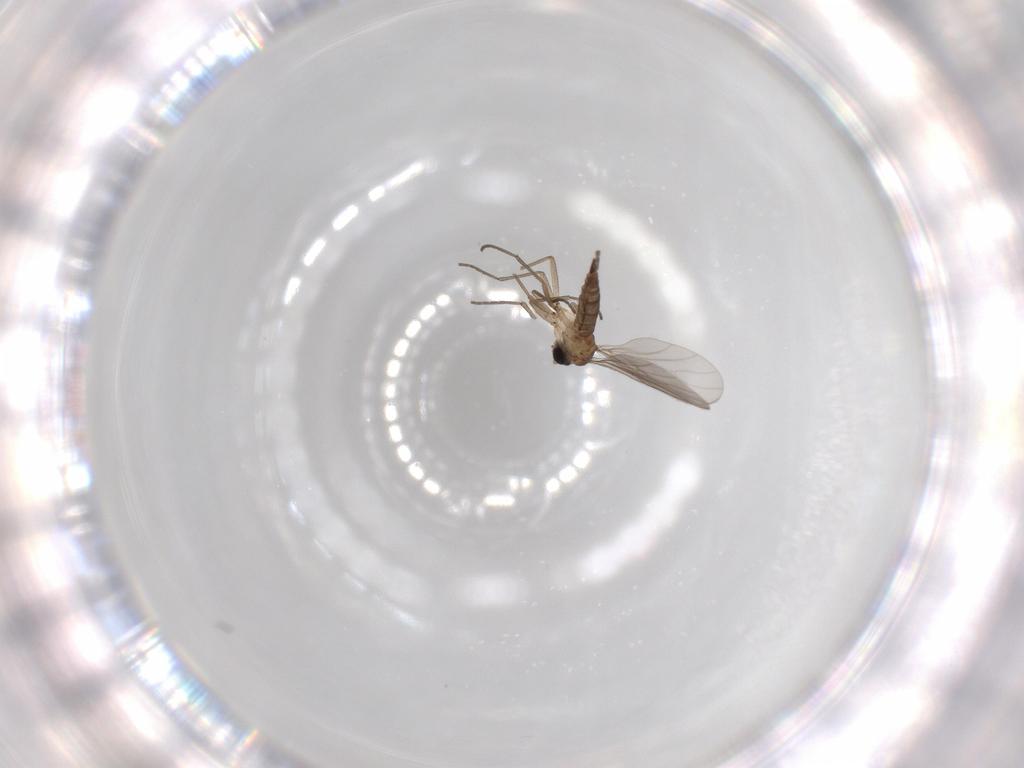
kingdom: Animalia
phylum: Arthropoda
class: Insecta
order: Diptera
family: Sciaridae
